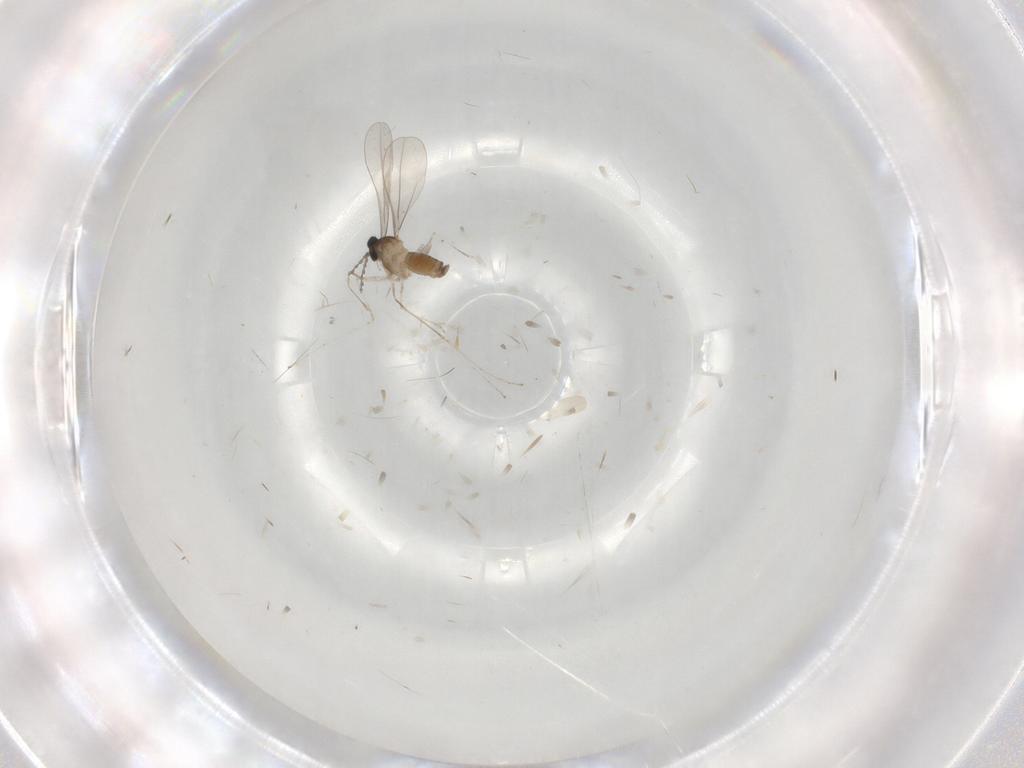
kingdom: Animalia
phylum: Arthropoda
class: Insecta
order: Diptera
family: Cecidomyiidae
